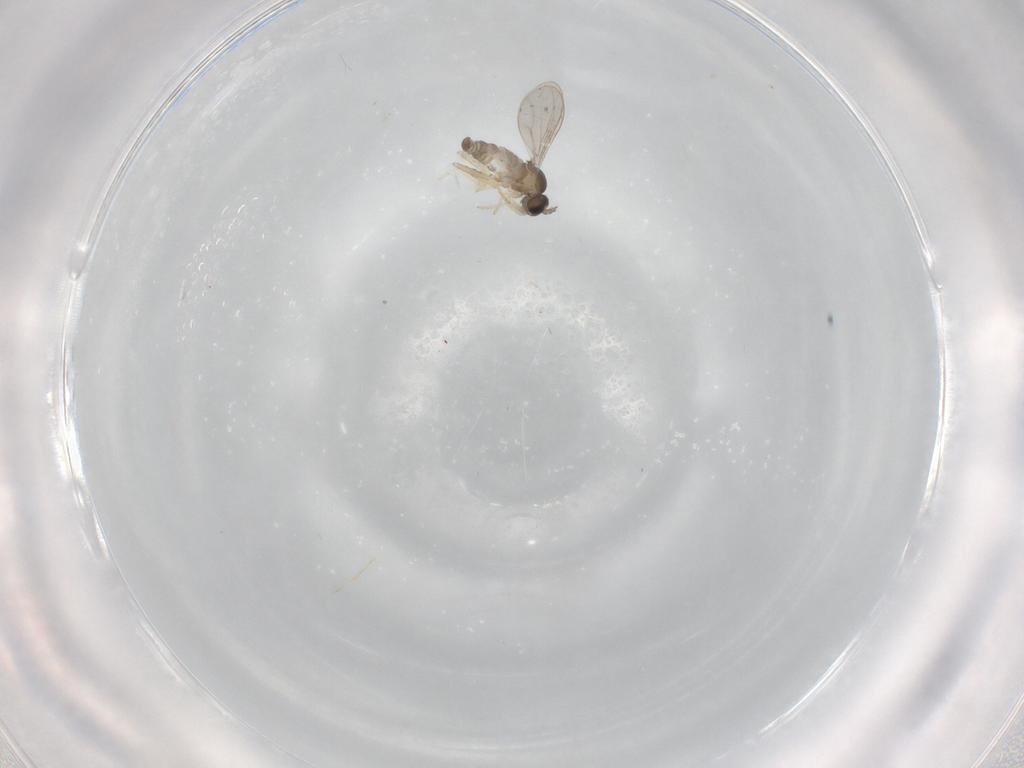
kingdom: Animalia
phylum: Arthropoda
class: Insecta
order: Diptera
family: Cecidomyiidae
